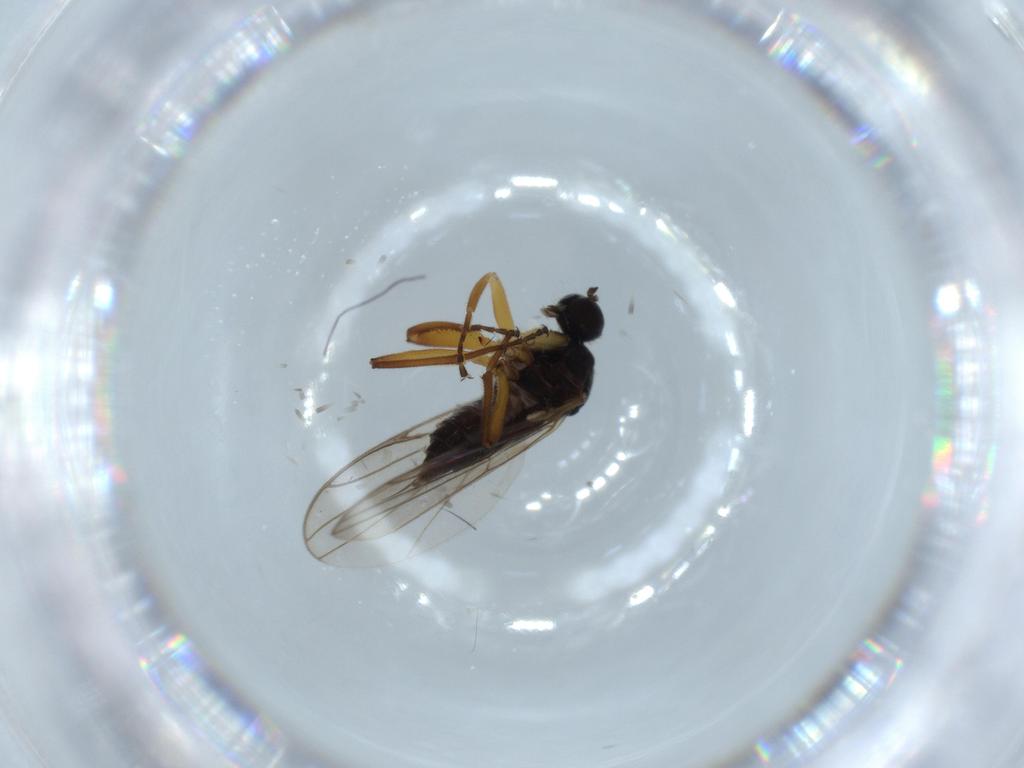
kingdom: Animalia
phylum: Arthropoda
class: Insecta
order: Diptera
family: Hybotidae
